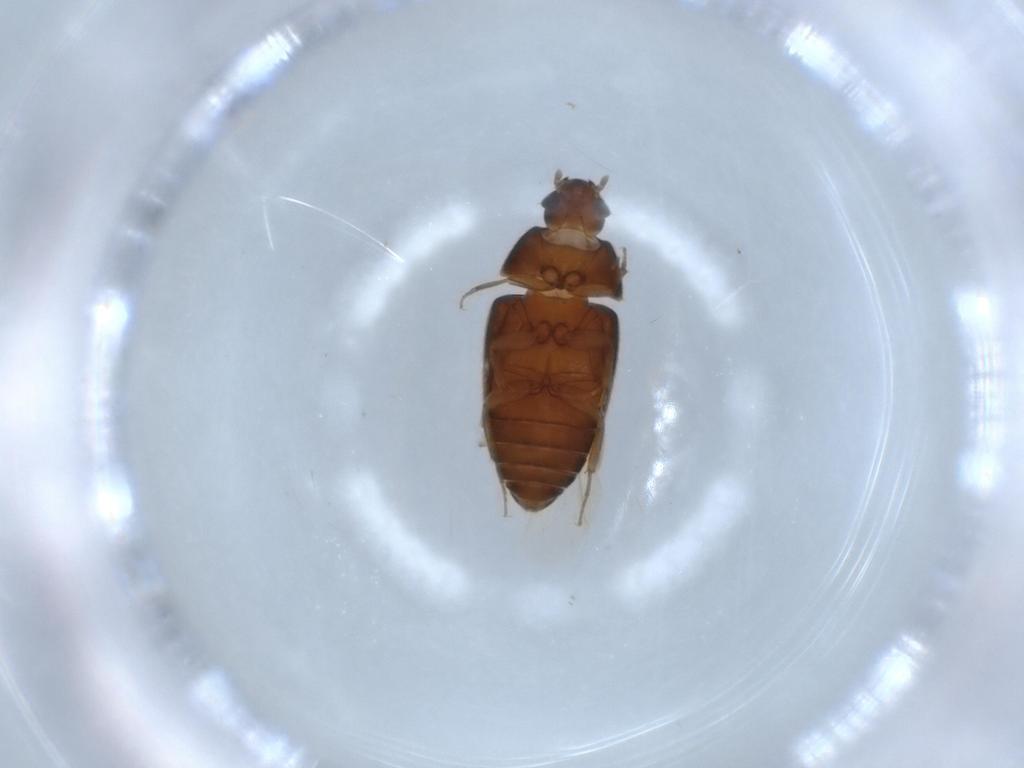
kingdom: Animalia
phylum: Arthropoda
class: Insecta
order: Coleoptera
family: Mycetophagidae
